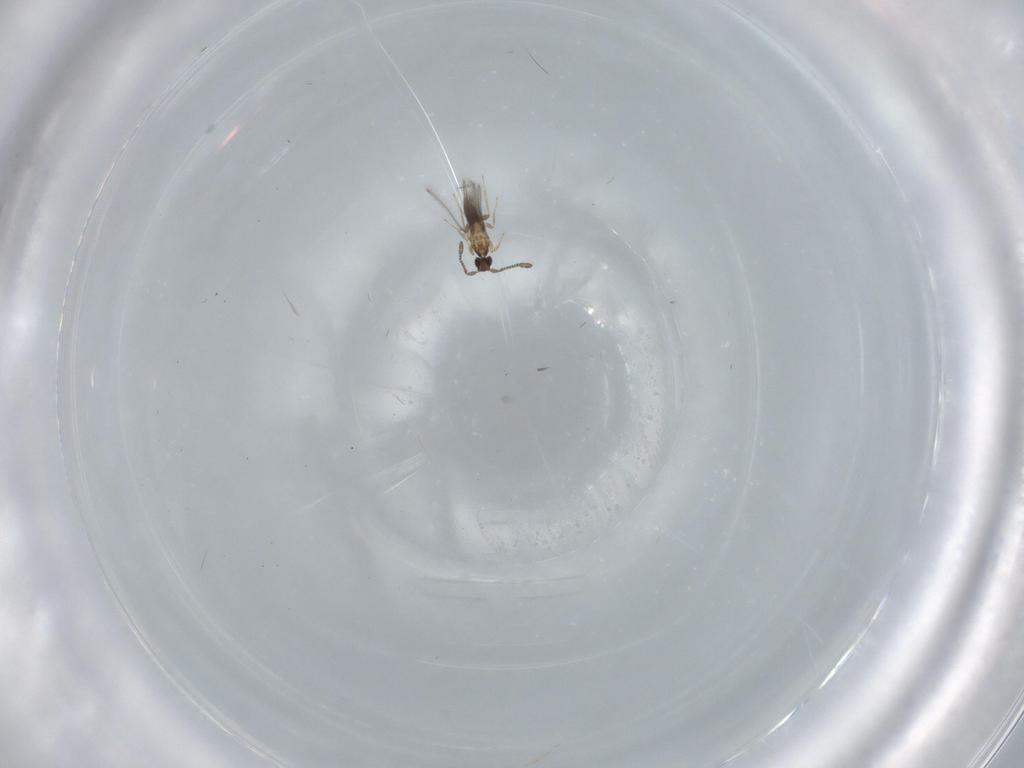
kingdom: Animalia
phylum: Arthropoda
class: Insecta
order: Hymenoptera
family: Mymaridae
